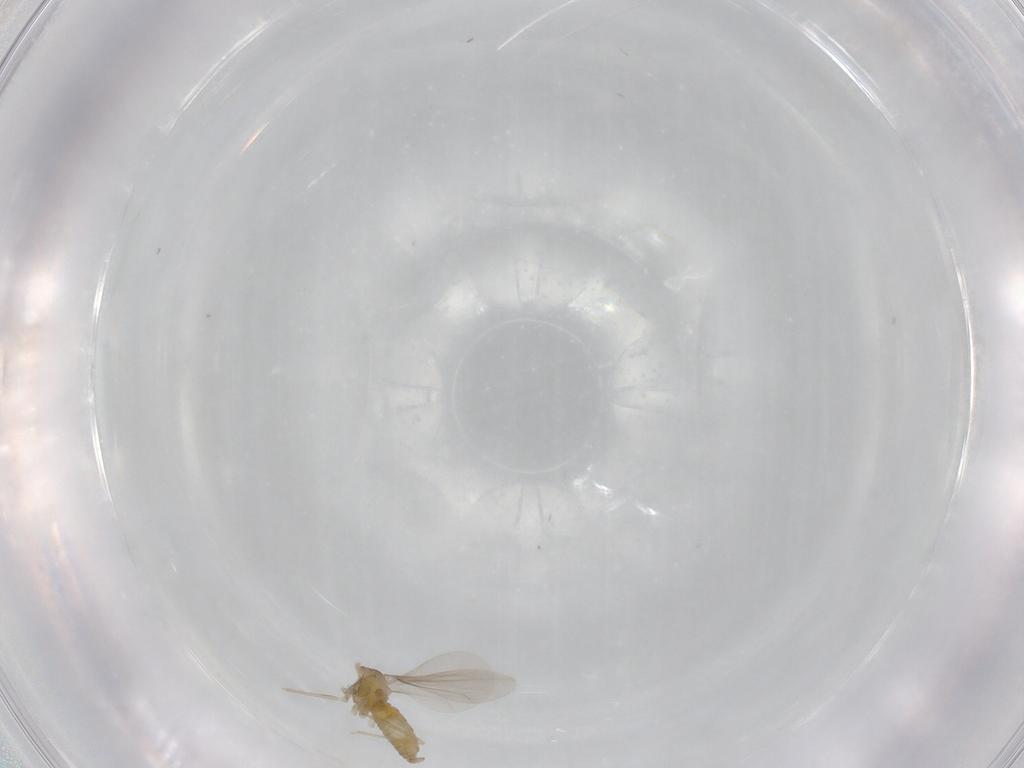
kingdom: Animalia
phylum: Arthropoda
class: Insecta
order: Diptera
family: Cecidomyiidae
